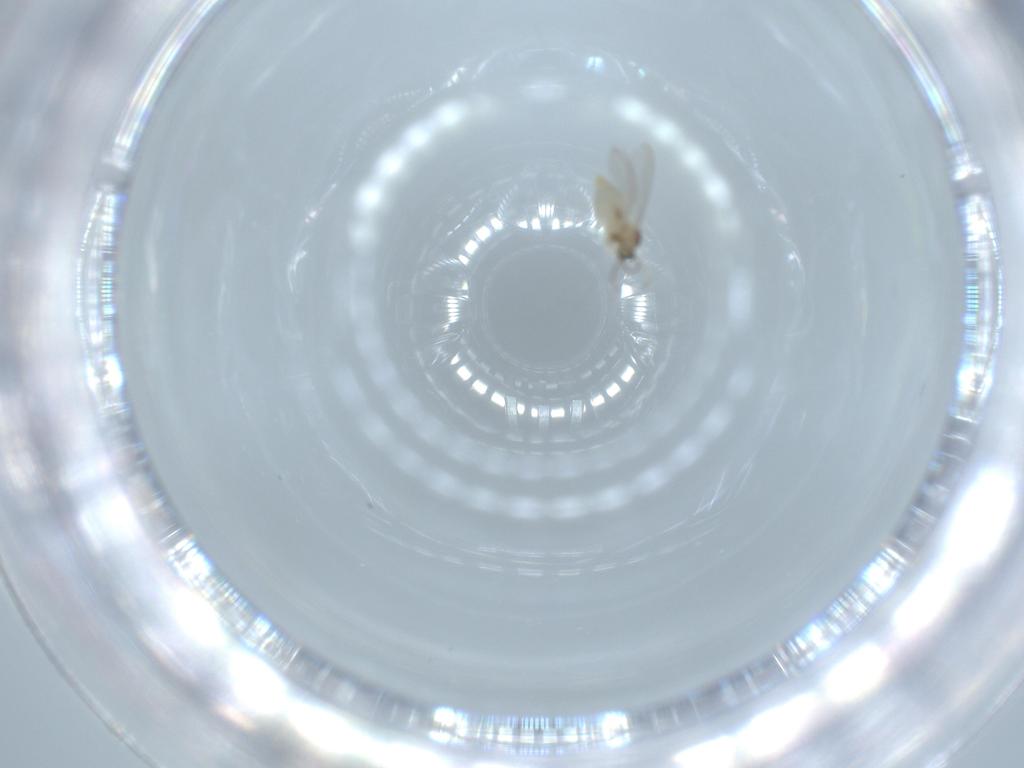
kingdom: Animalia
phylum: Arthropoda
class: Insecta
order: Diptera
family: Cecidomyiidae
